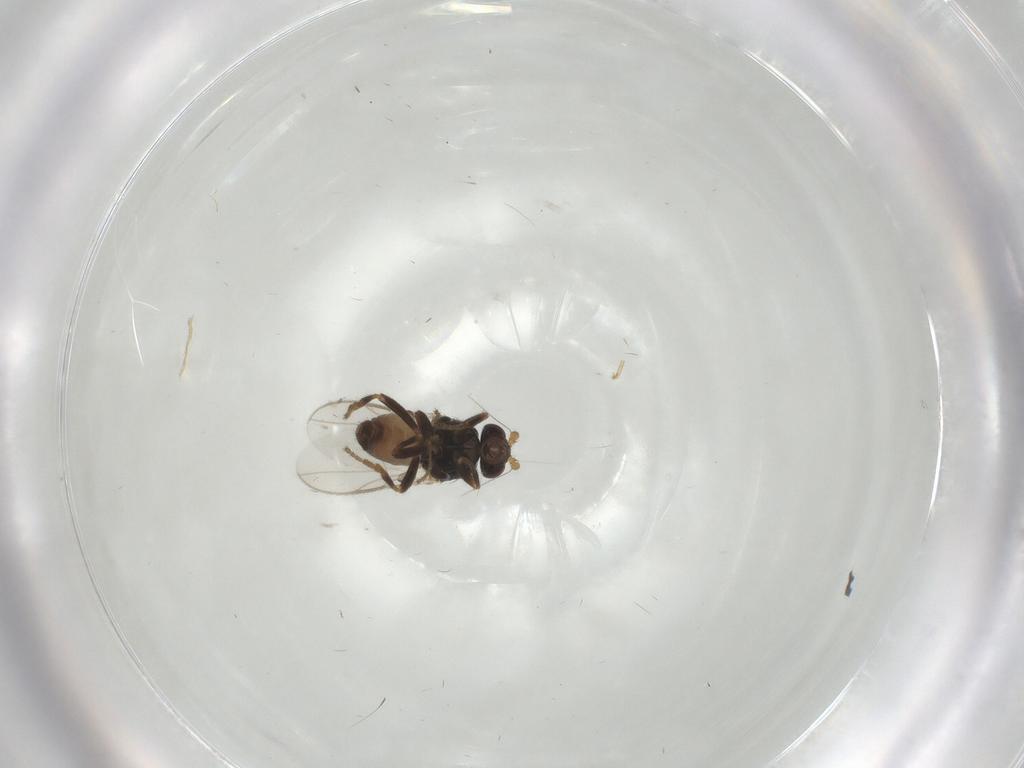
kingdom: Animalia
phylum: Arthropoda
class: Insecta
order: Diptera
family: Sphaeroceridae
